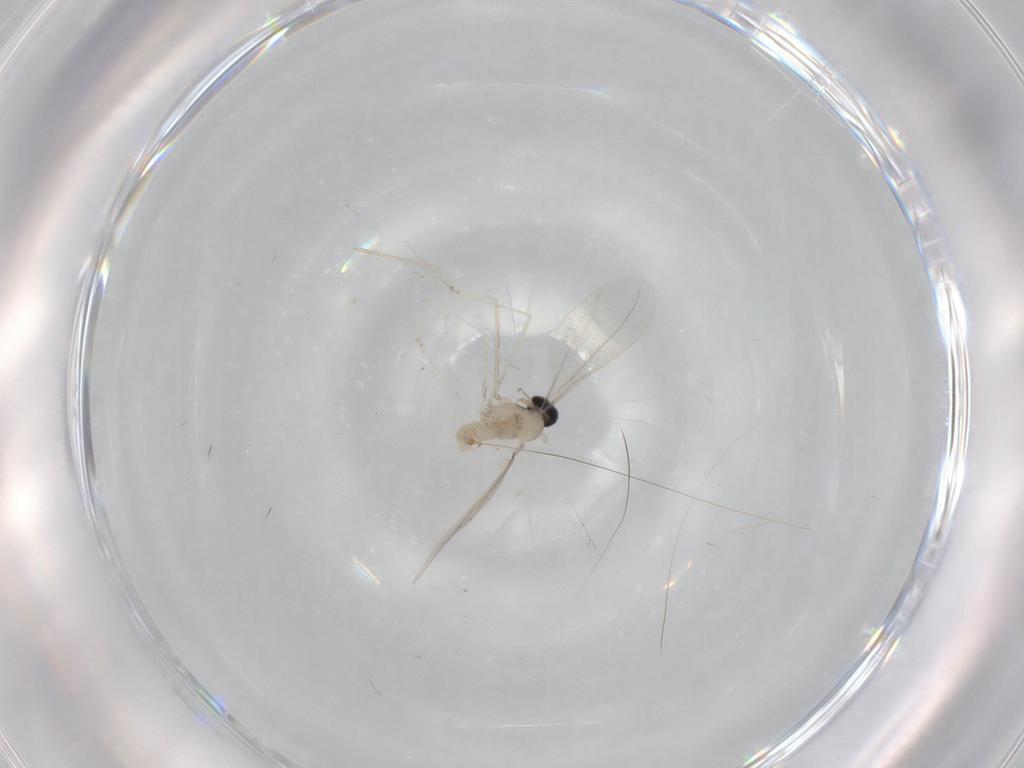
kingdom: Animalia
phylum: Arthropoda
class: Insecta
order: Diptera
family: Cecidomyiidae
